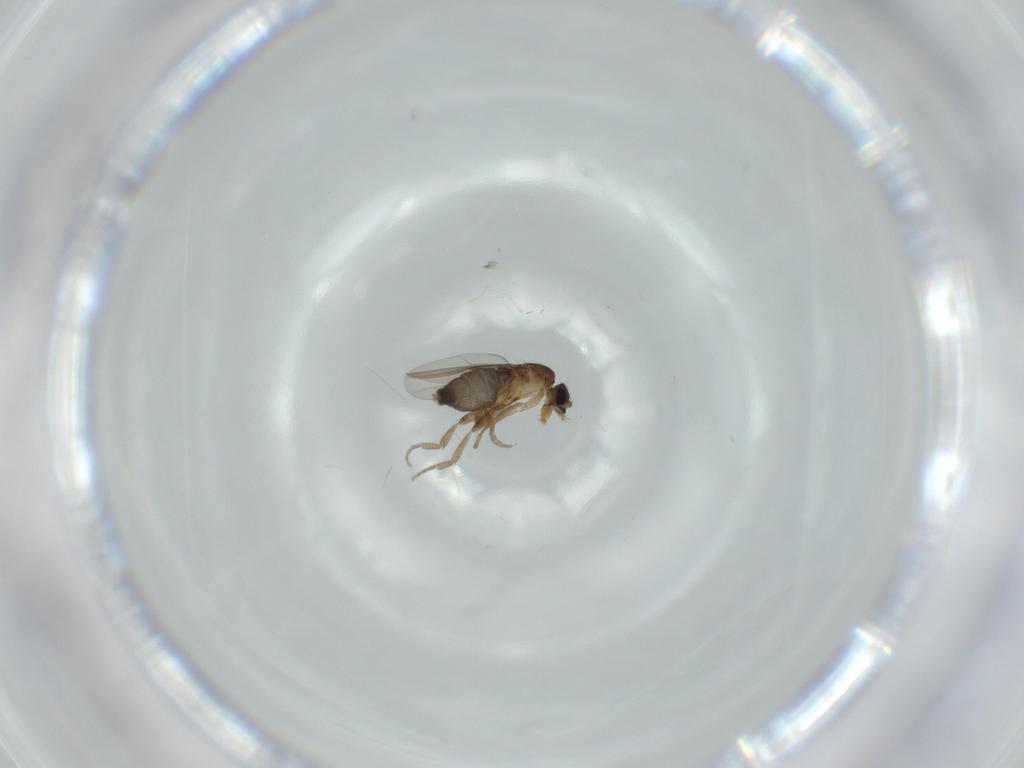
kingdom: Animalia
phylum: Arthropoda
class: Insecta
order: Diptera
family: Phoridae
